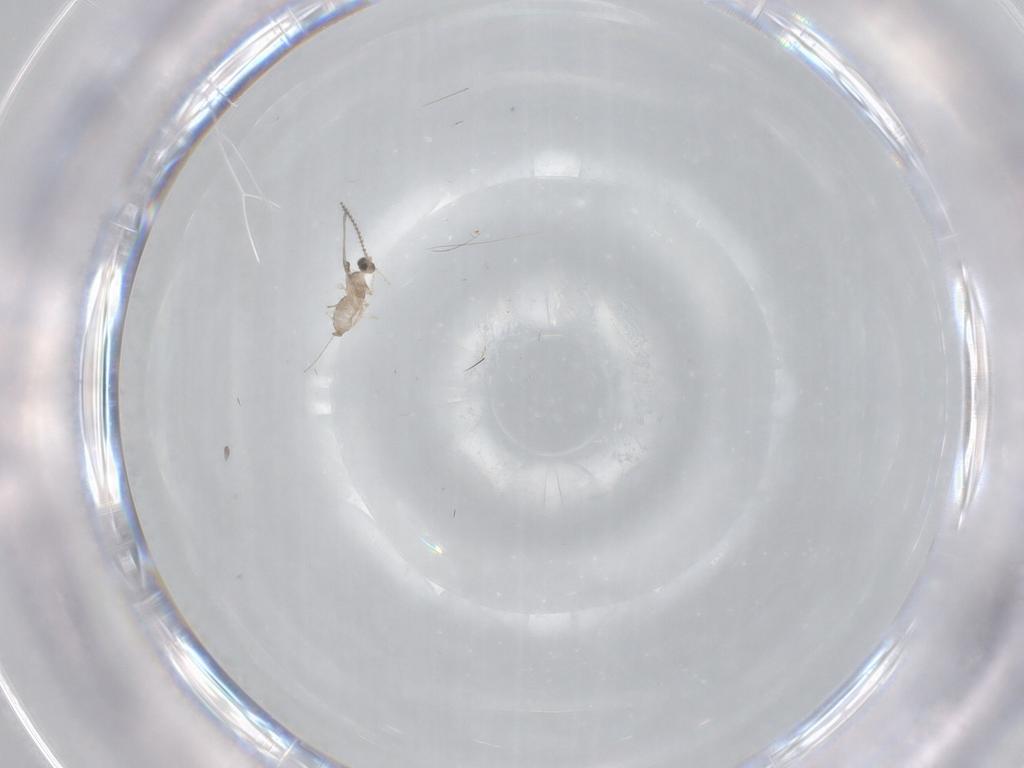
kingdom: Animalia
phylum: Arthropoda
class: Insecta
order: Diptera
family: Cecidomyiidae
